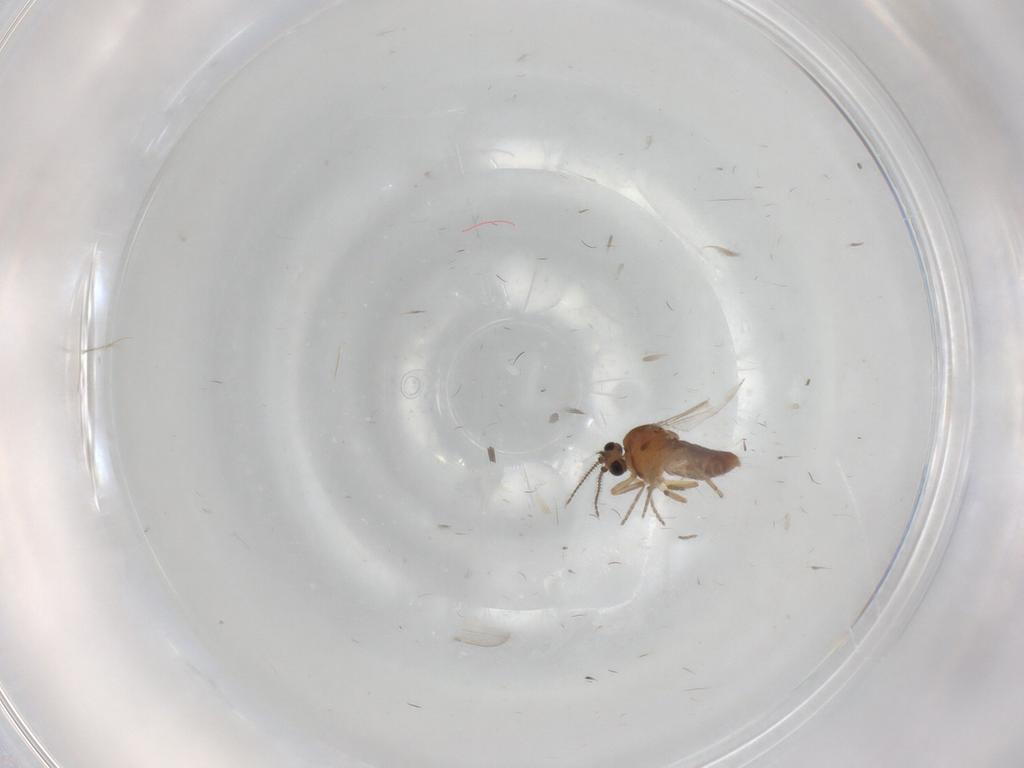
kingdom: Animalia
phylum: Arthropoda
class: Insecta
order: Diptera
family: Ceratopogonidae
